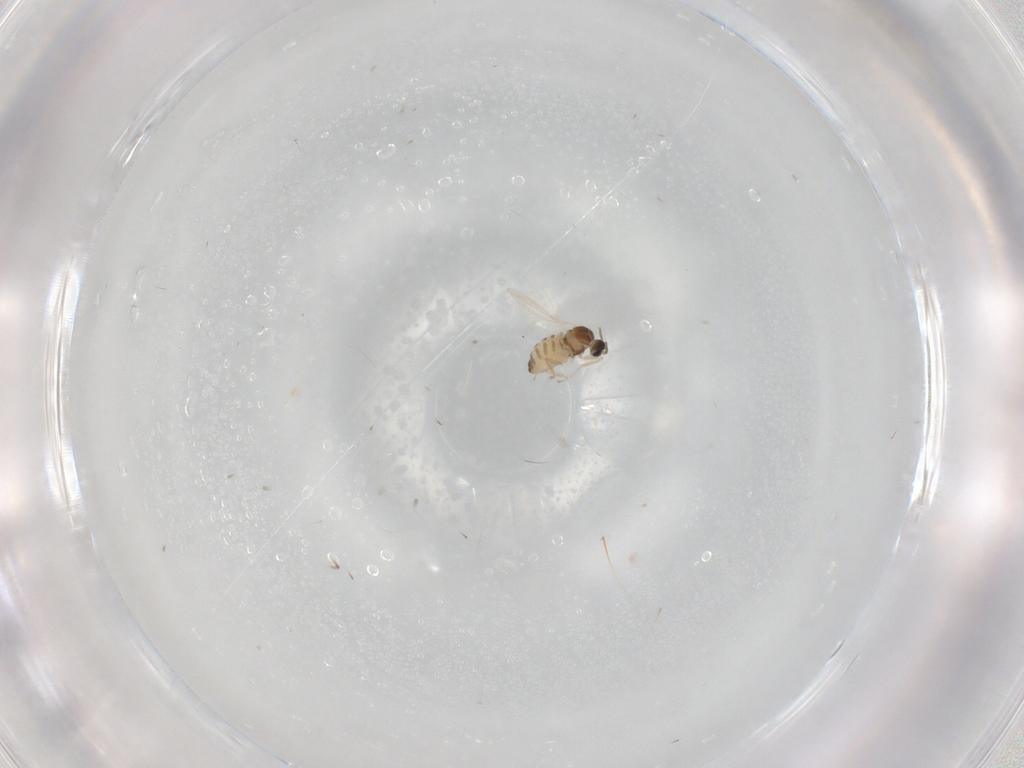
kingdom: Animalia
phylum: Arthropoda
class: Insecta
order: Diptera
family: Cecidomyiidae
